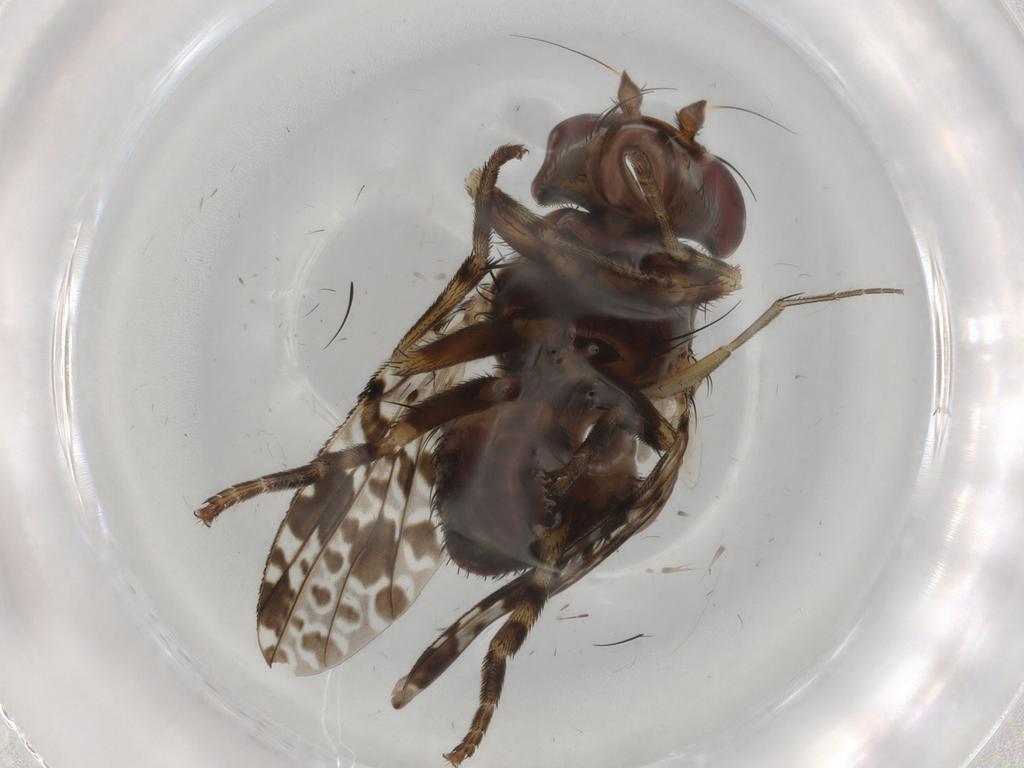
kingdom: Animalia
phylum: Arthropoda
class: Insecta
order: Diptera
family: Odiniidae
